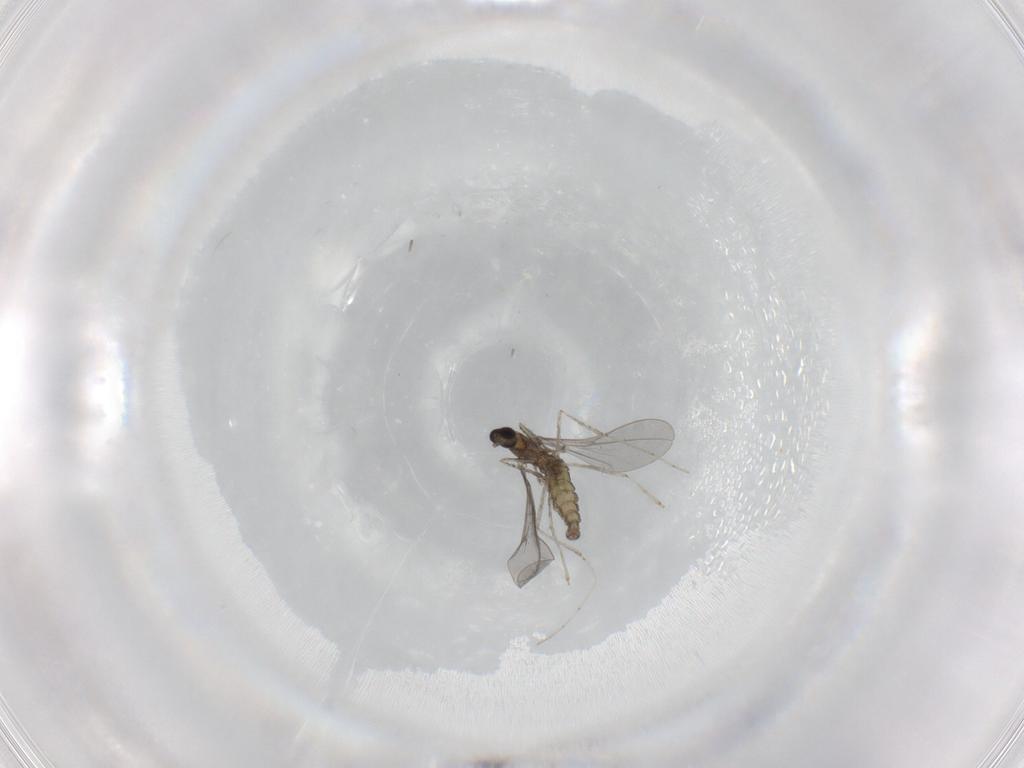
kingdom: Animalia
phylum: Arthropoda
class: Insecta
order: Diptera
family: Cecidomyiidae
